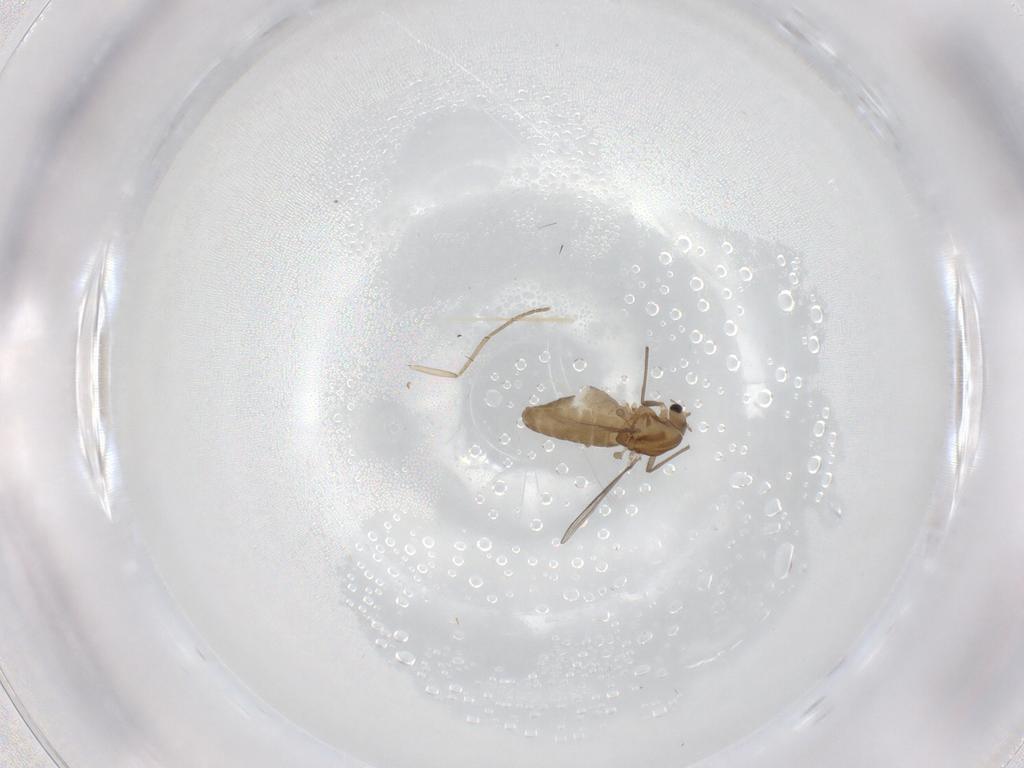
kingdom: Animalia
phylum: Arthropoda
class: Insecta
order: Diptera
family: Chironomidae
